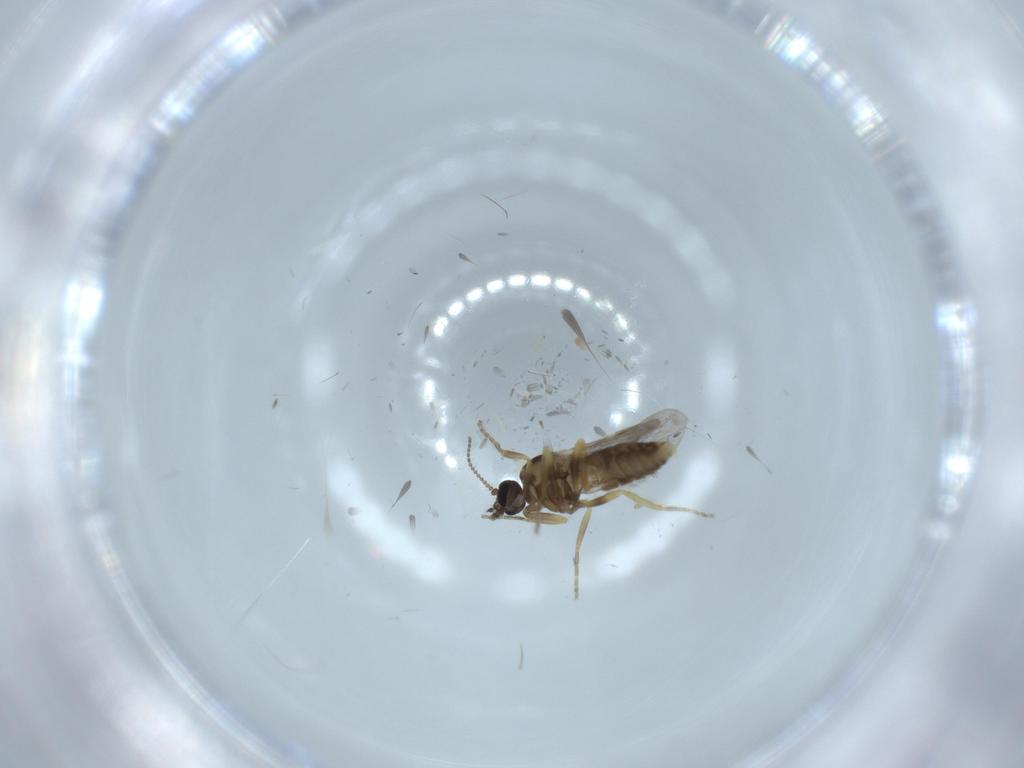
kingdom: Animalia
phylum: Arthropoda
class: Insecta
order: Diptera
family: Ceratopogonidae
